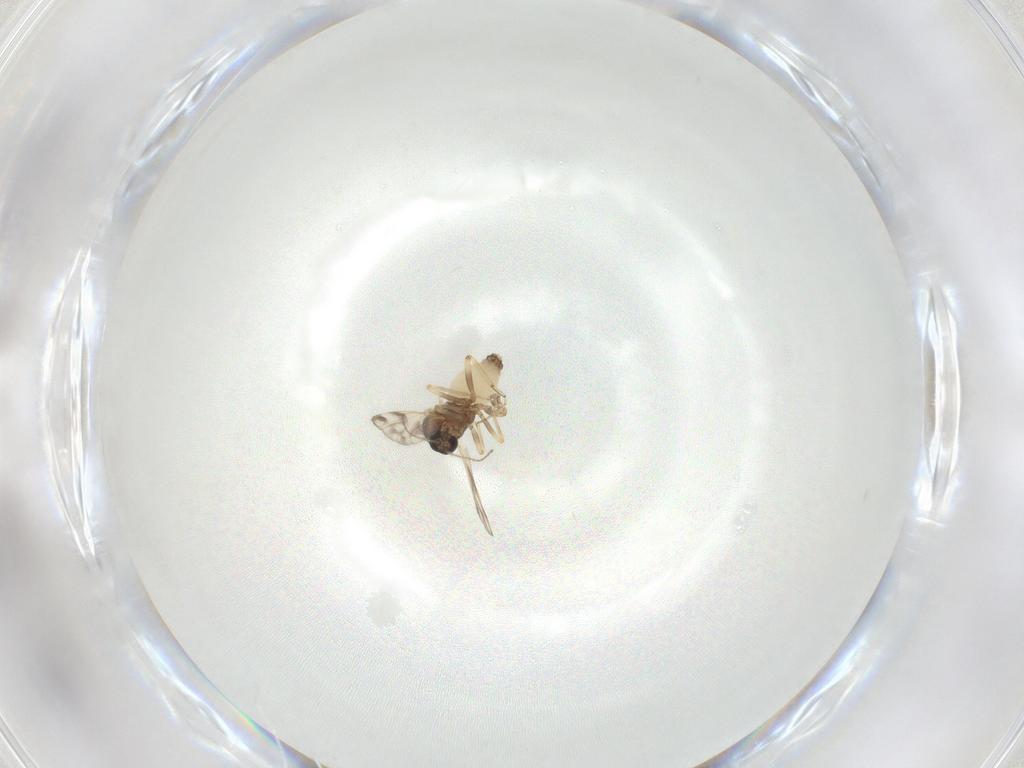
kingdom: Animalia
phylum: Arthropoda
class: Insecta
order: Diptera
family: Ceratopogonidae
